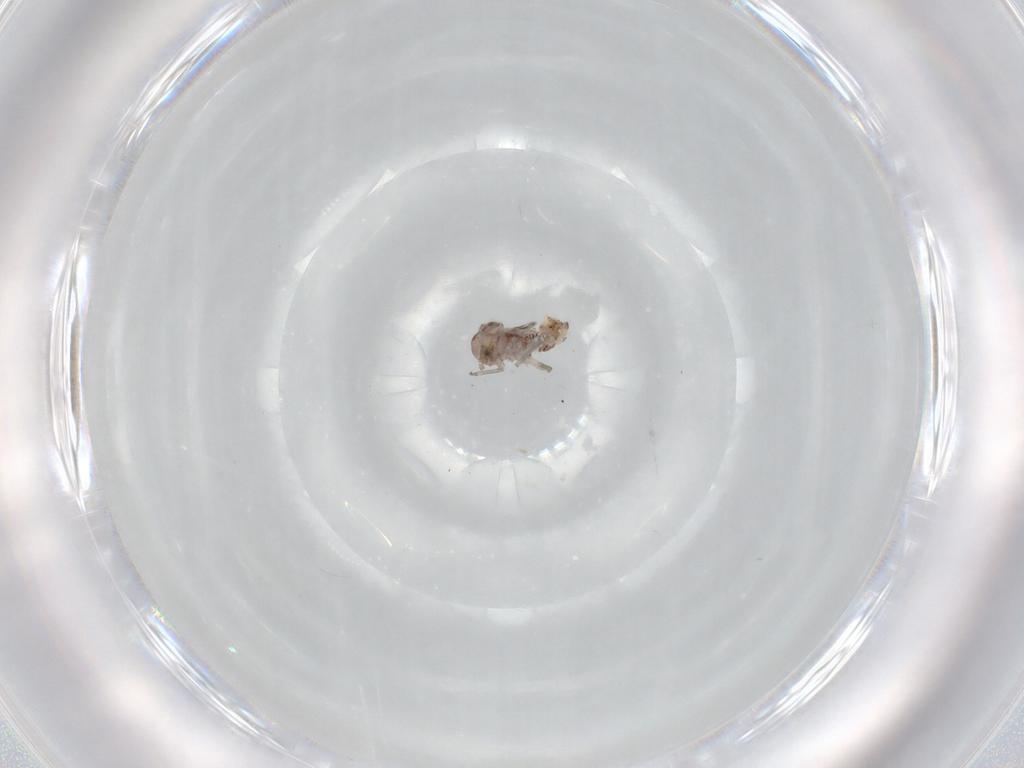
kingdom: Animalia
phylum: Arthropoda
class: Insecta
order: Psocodea
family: Peripsocidae
